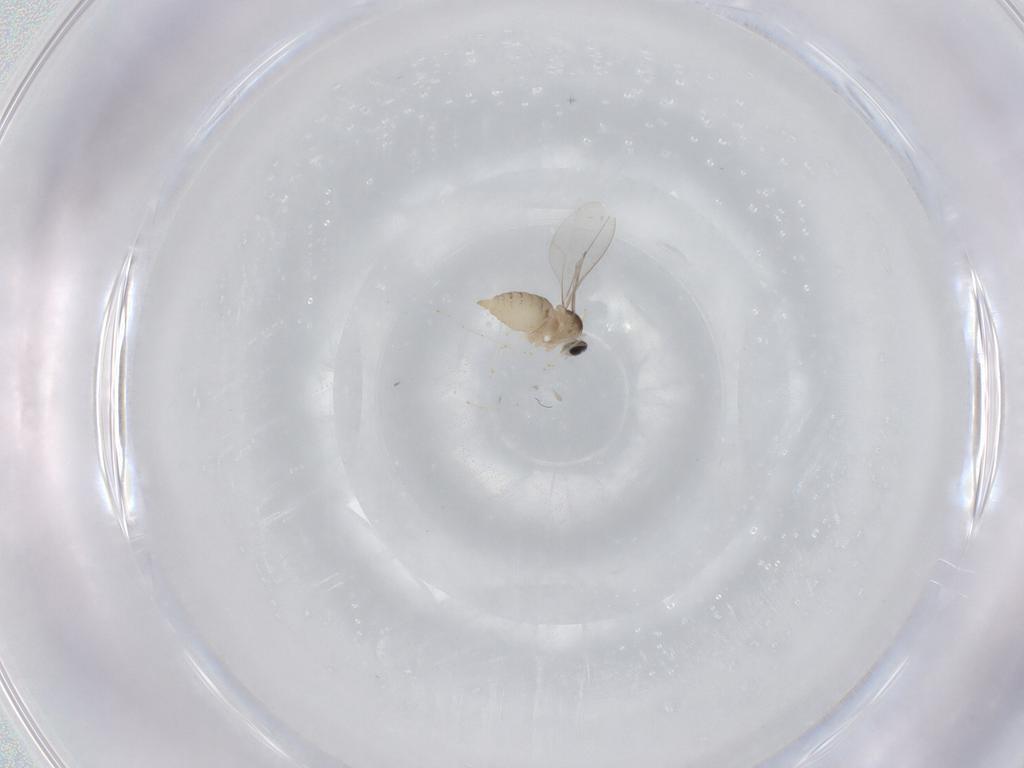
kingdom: Animalia
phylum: Arthropoda
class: Insecta
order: Diptera
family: Cecidomyiidae
